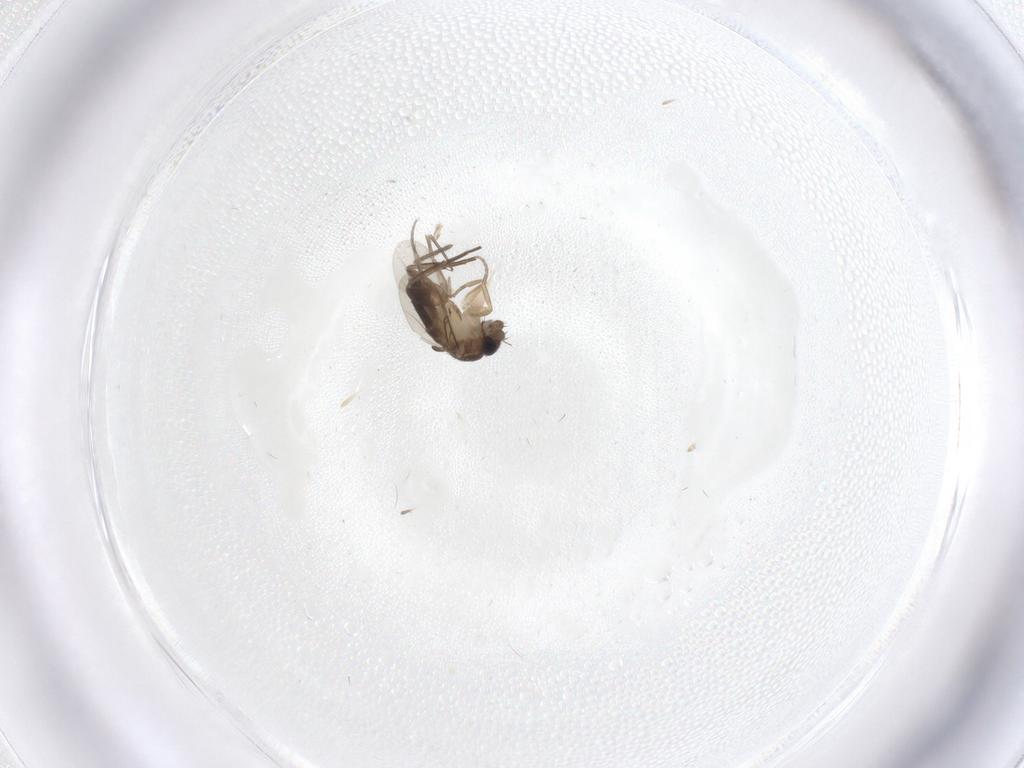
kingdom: Animalia
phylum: Arthropoda
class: Insecta
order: Diptera
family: Phoridae
